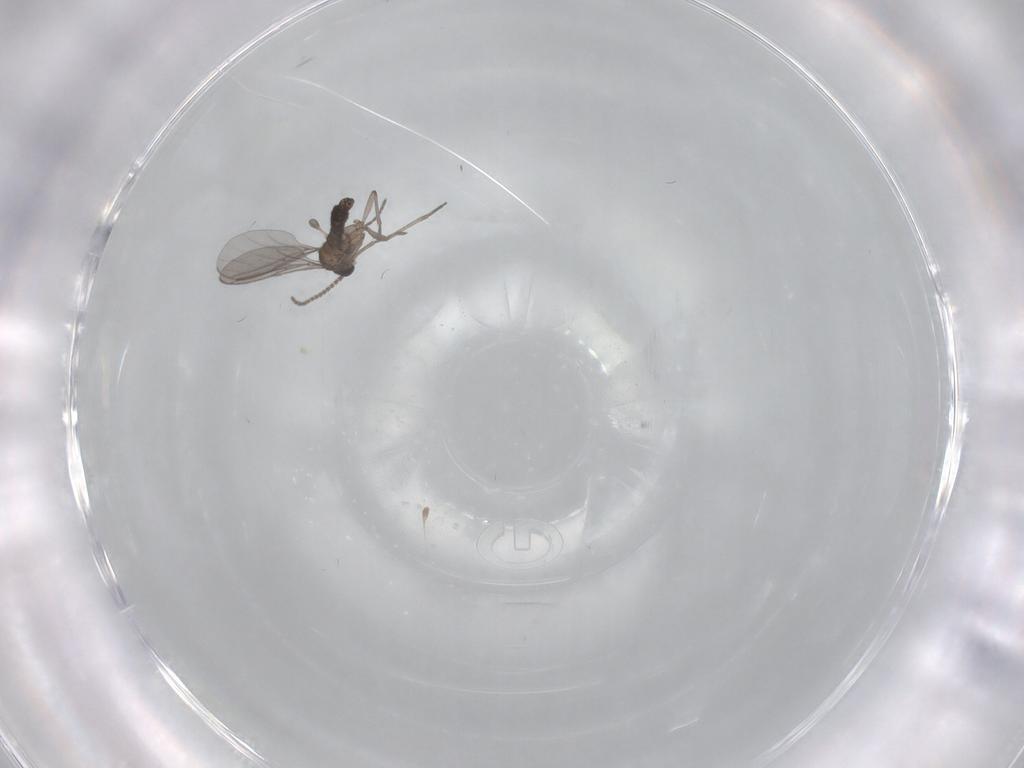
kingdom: Animalia
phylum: Arthropoda
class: Insecta
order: Diptera
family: Sciaridae
